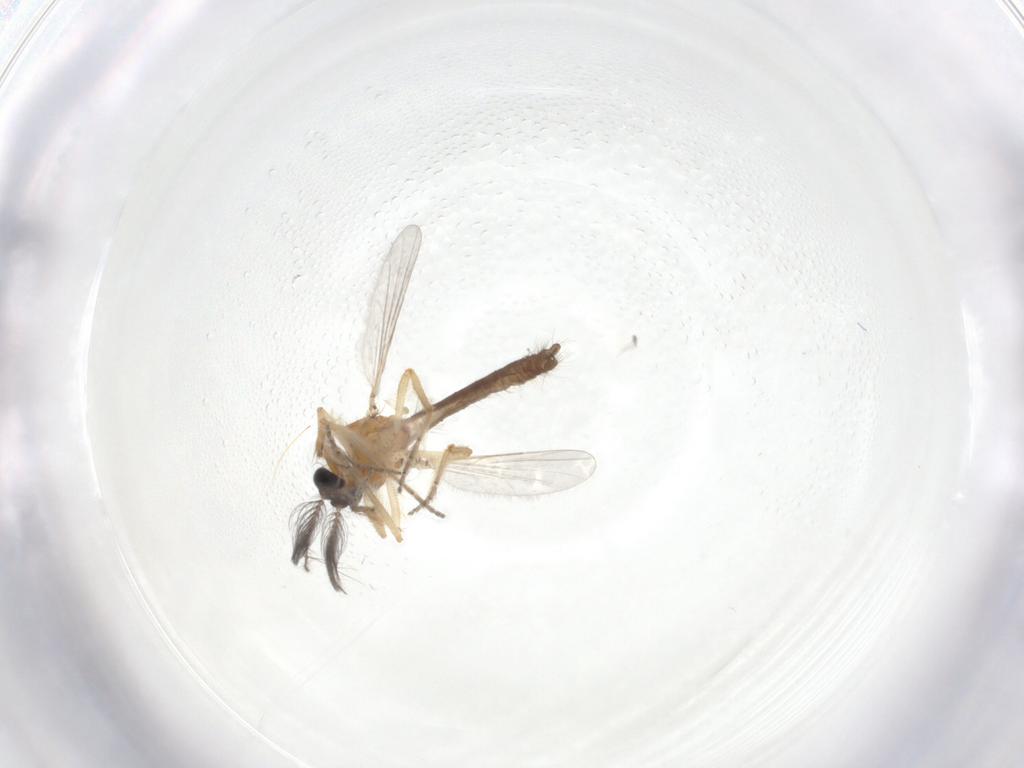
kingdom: Animalia
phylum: Arthropoda
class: Insecta
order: Diptera
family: Ceratopogonidae
